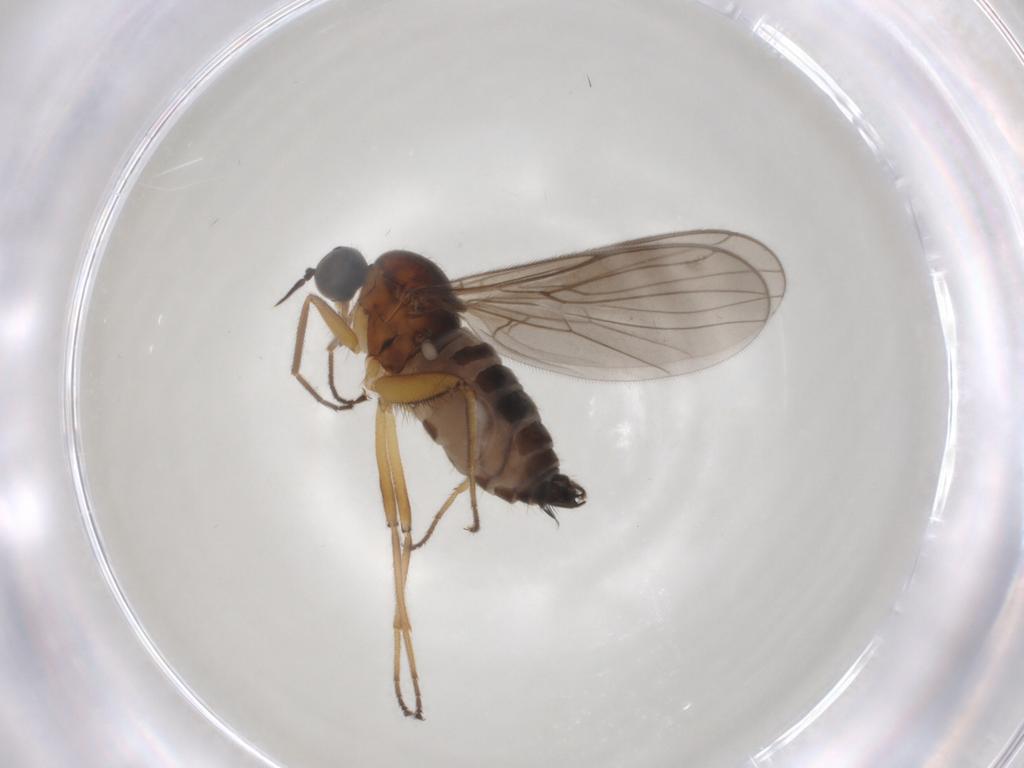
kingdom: Animalia
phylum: Arthropoda
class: Insecta
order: Diptera
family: Hybotidae
